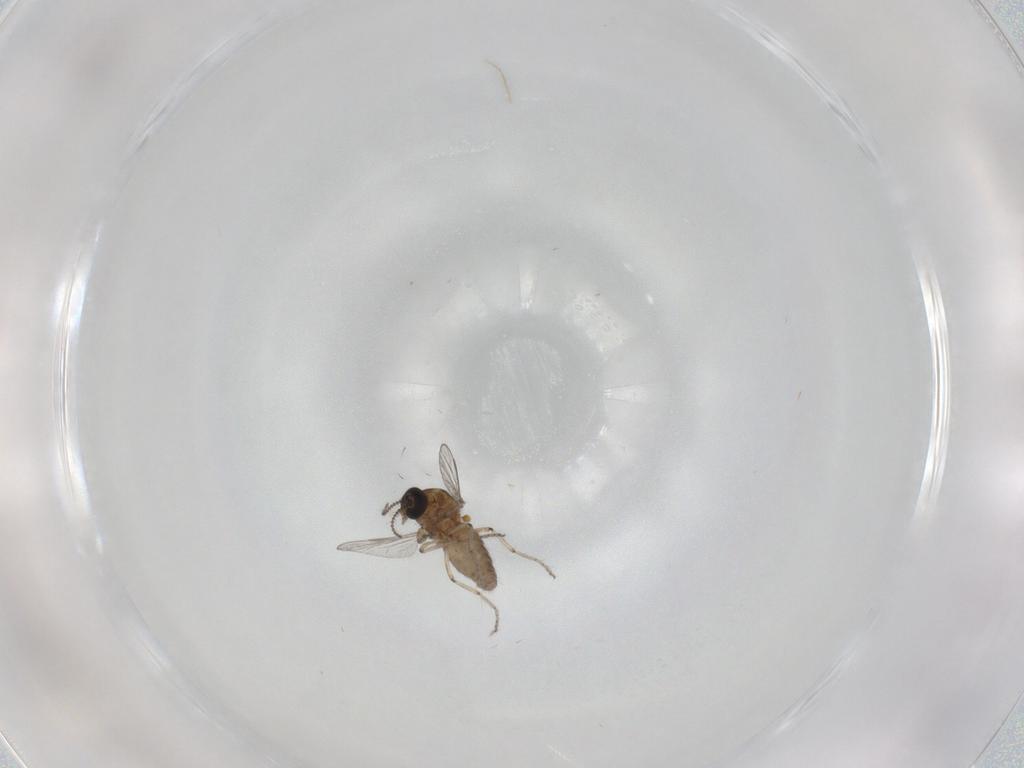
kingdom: Animalia
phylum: Arthropoda
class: Insecta
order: Diptera
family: Ceratopogonidae
